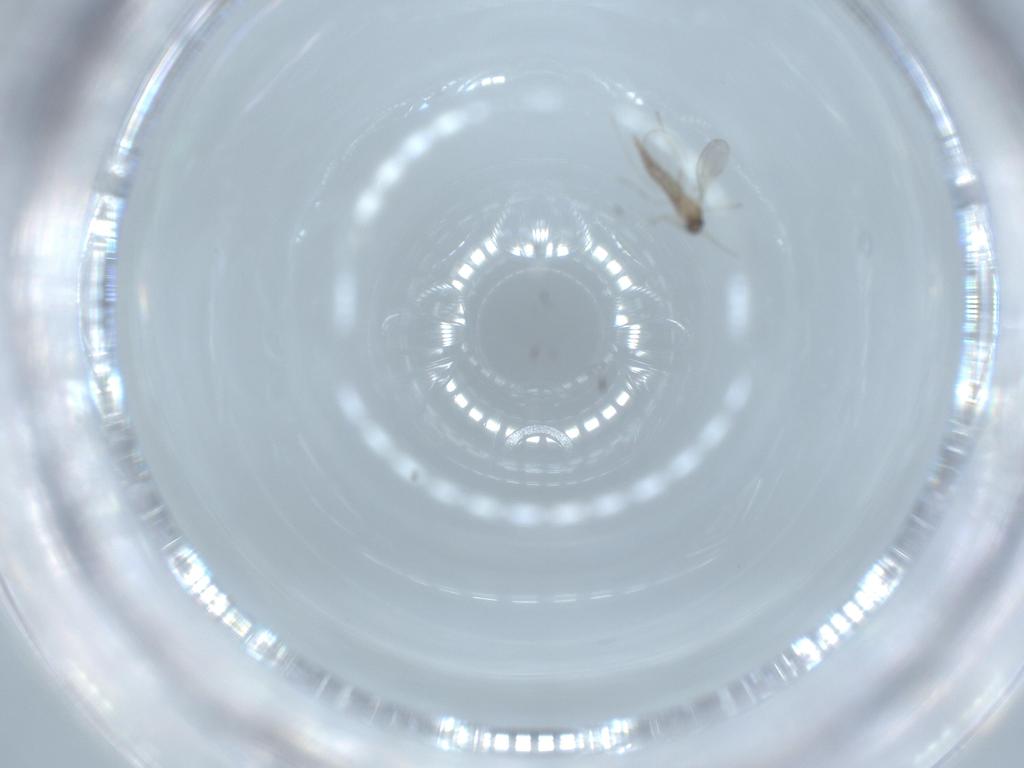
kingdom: Animalia
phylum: Arthropoda
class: Insecta
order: Diptera
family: Cecidomyiidae
